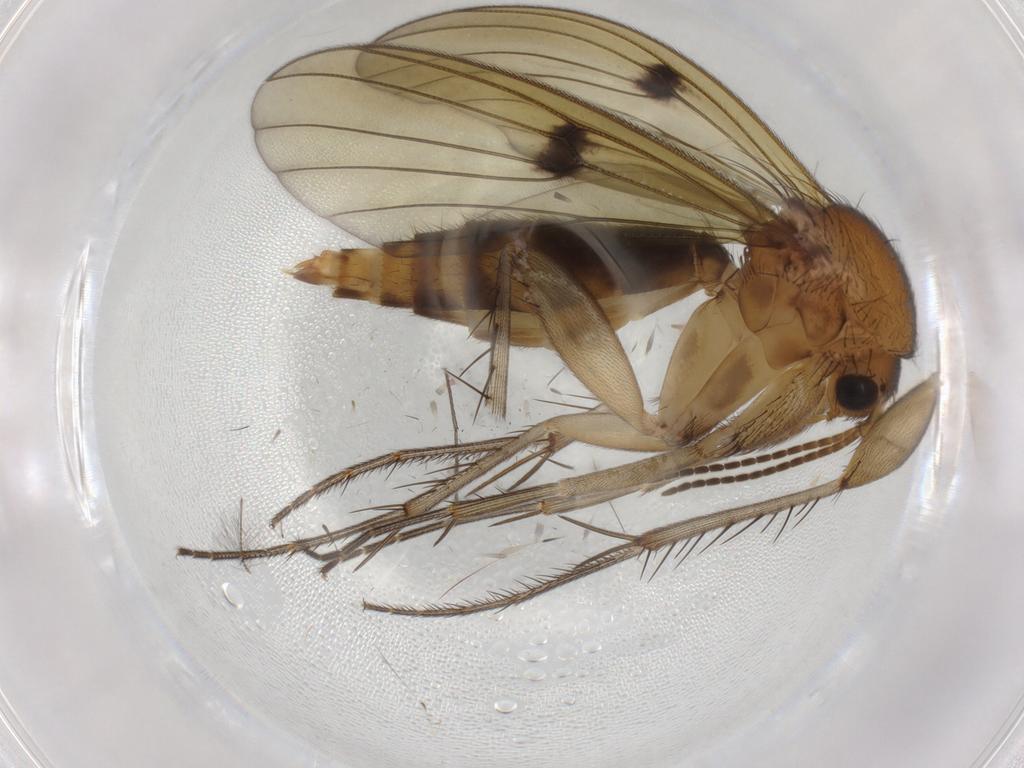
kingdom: Animalia
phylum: Arthropoda
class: Insecta
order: Diptera
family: Chironomidae
